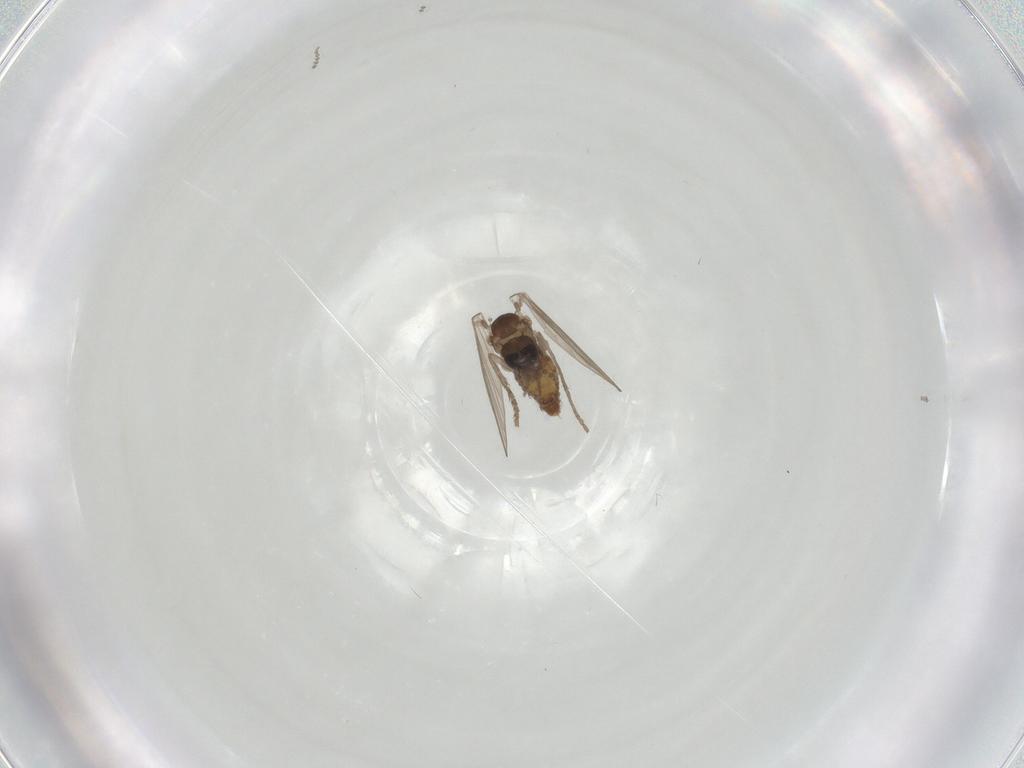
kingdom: Animalia
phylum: Arthropoda
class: Insecta
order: Diptera
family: Psychodidae
